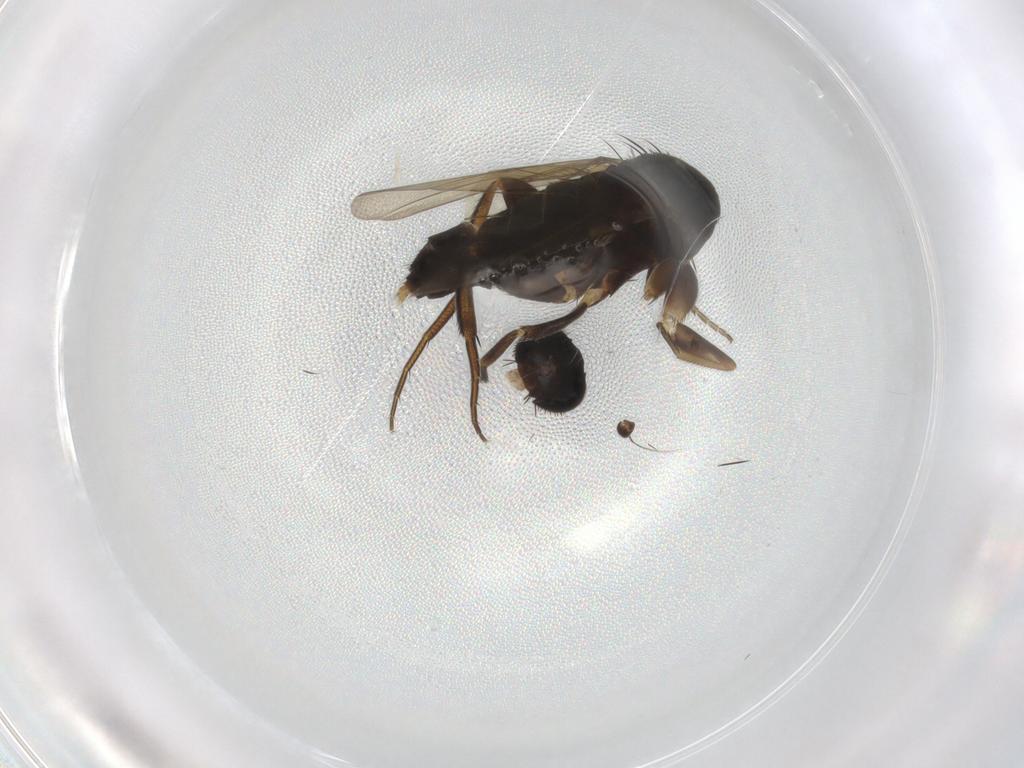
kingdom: Animalia
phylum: Arthropoda
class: Insecta
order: Diptera
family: Phoridae
